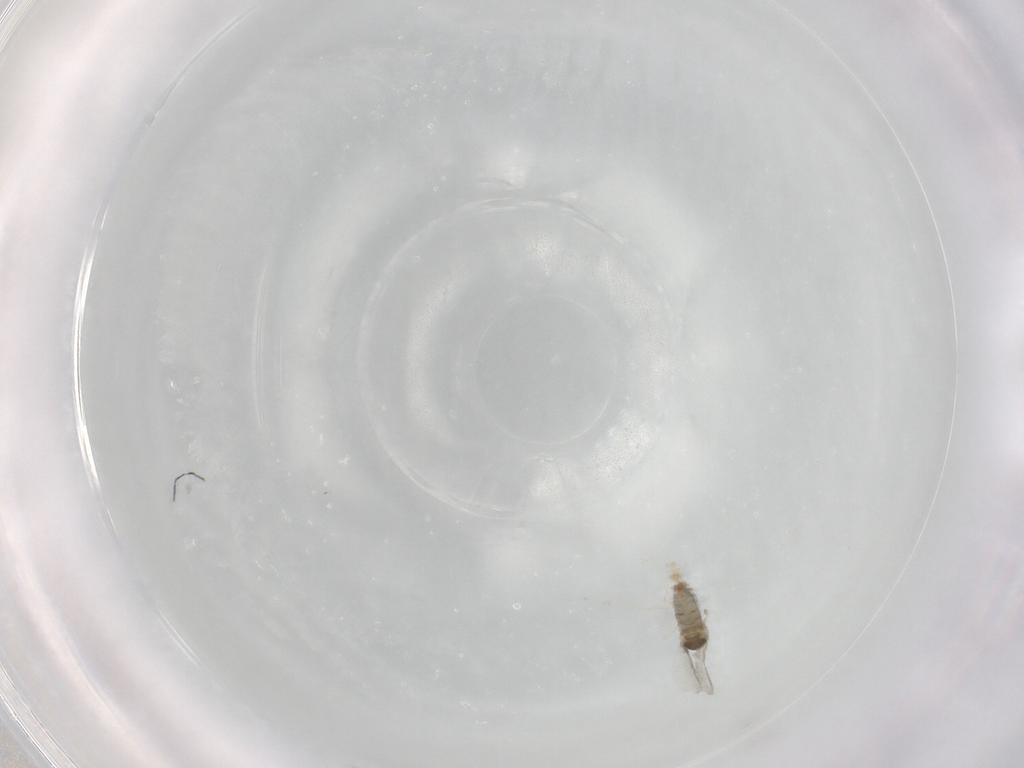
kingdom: Animalia
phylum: Arthropoda
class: Insecta
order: Diptera
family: Cecidomyiidae
